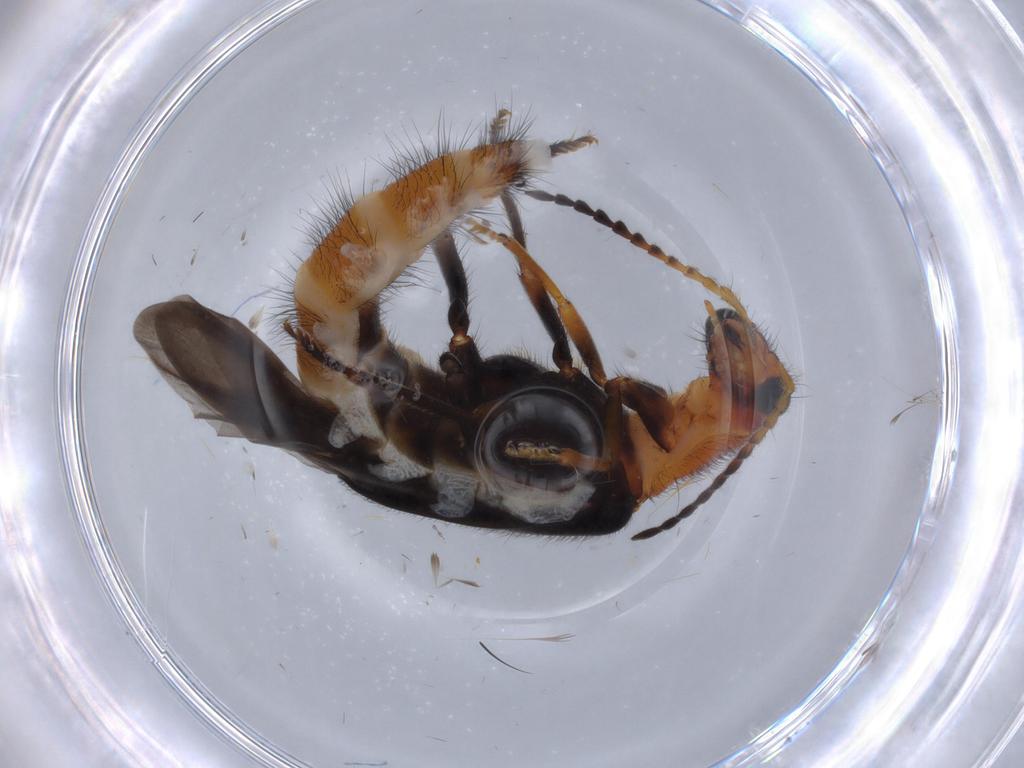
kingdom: Animalia
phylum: Arthropoda
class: Insecta
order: Coleoptera
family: Melyridae
